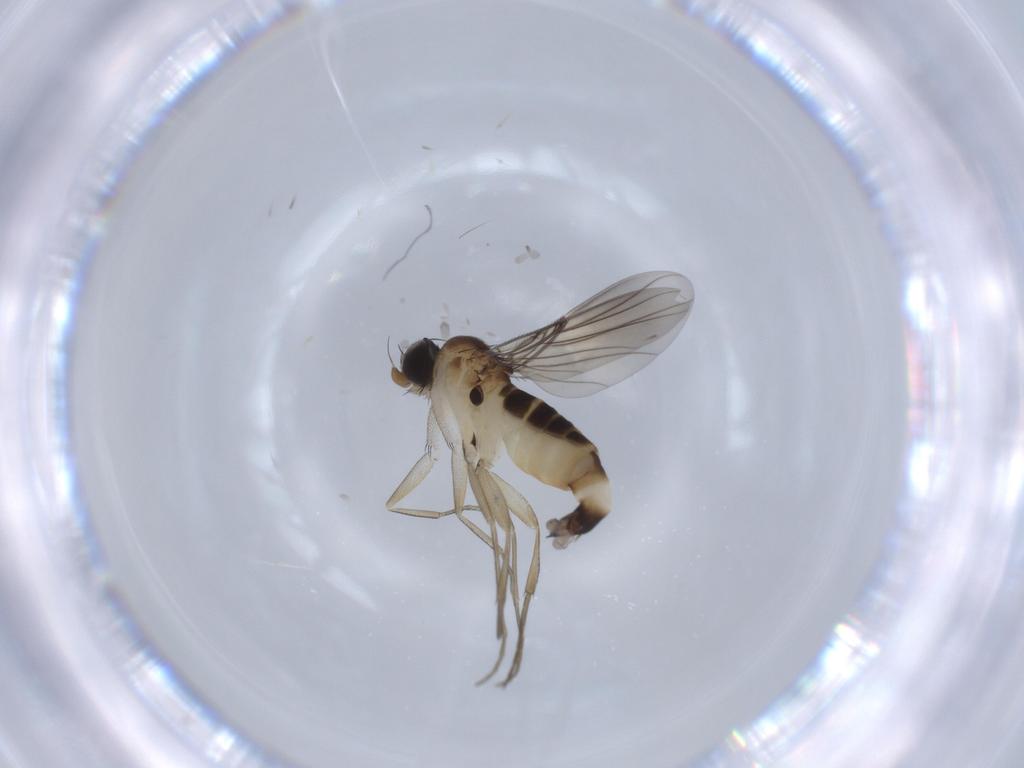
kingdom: Animalia
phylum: Arthropoda
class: Insecta
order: Diptera
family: Phoridae
